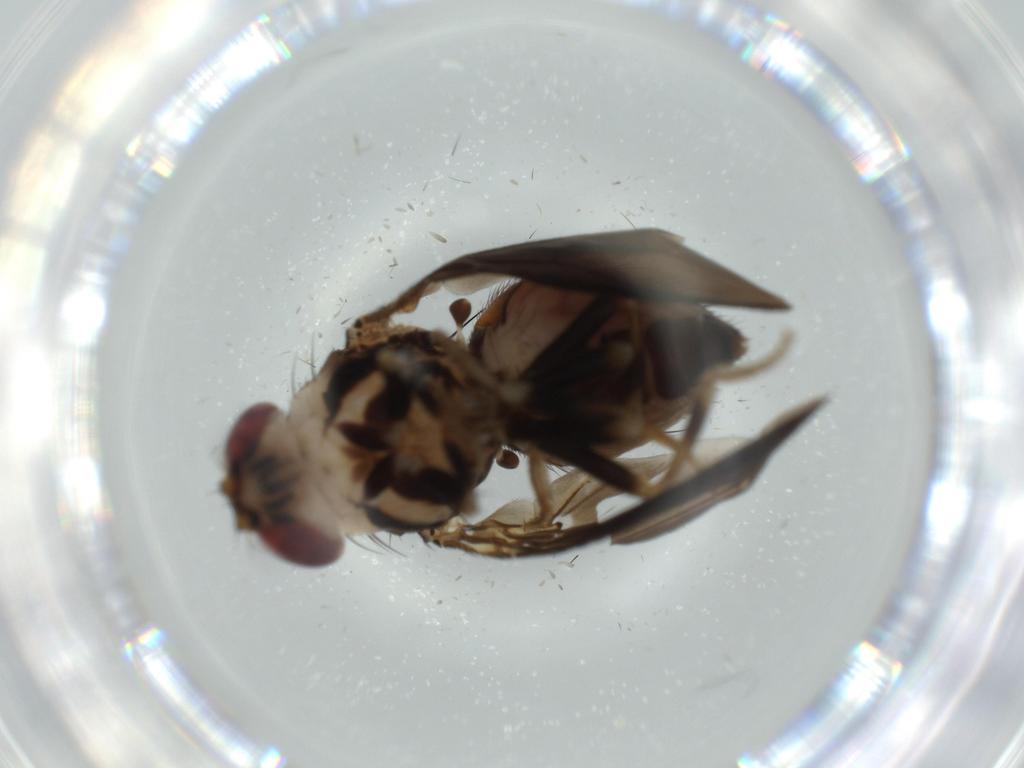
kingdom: Animalia
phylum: Arthropoda
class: Insecta
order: Diptera
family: Drosophilidae
